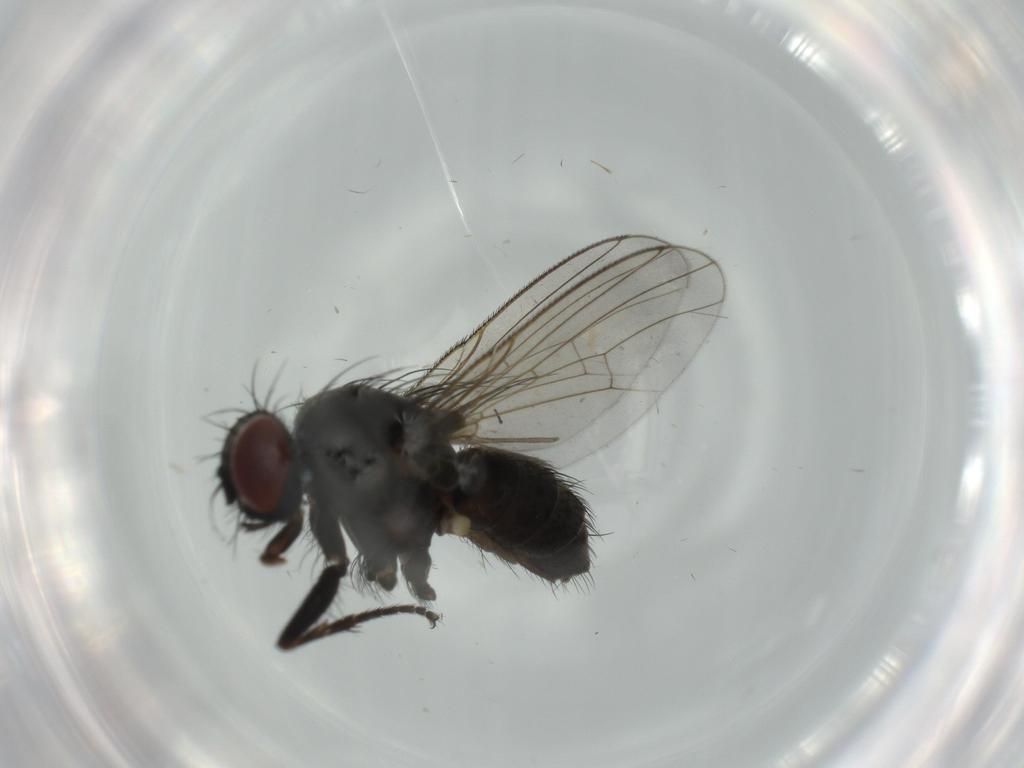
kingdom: Animalia
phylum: Arthropoda
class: Insecta
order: Diptera
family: Muscidae
